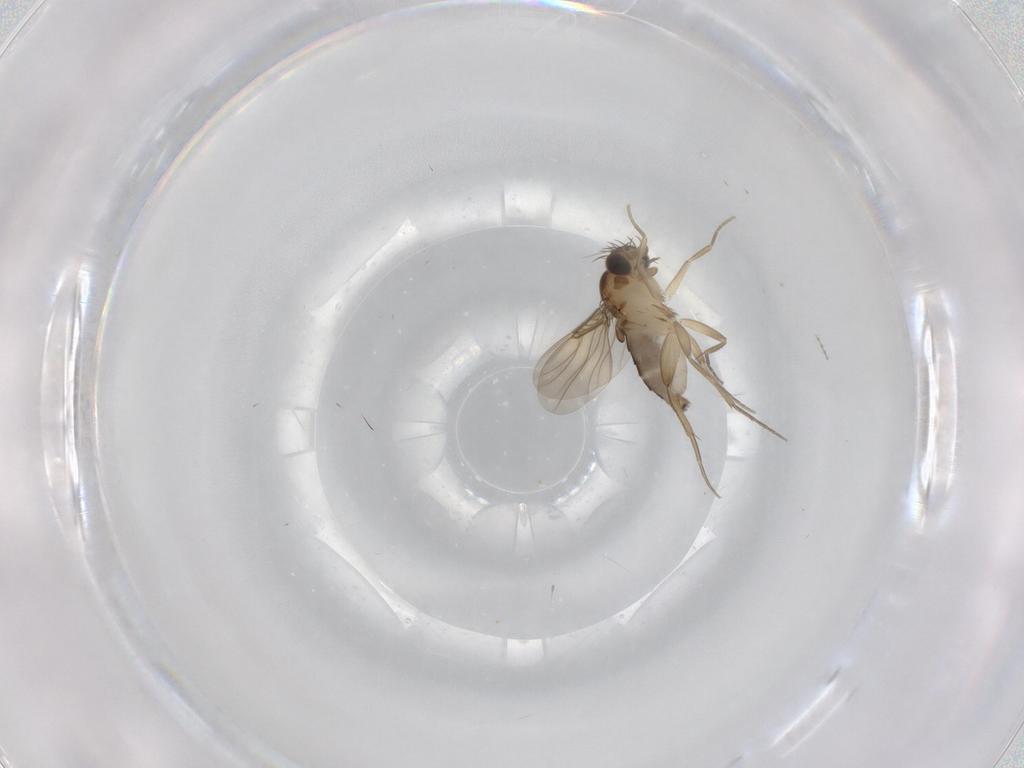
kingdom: Animalia
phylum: Arthropoda
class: Insecta
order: Diptera
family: Phoridae
